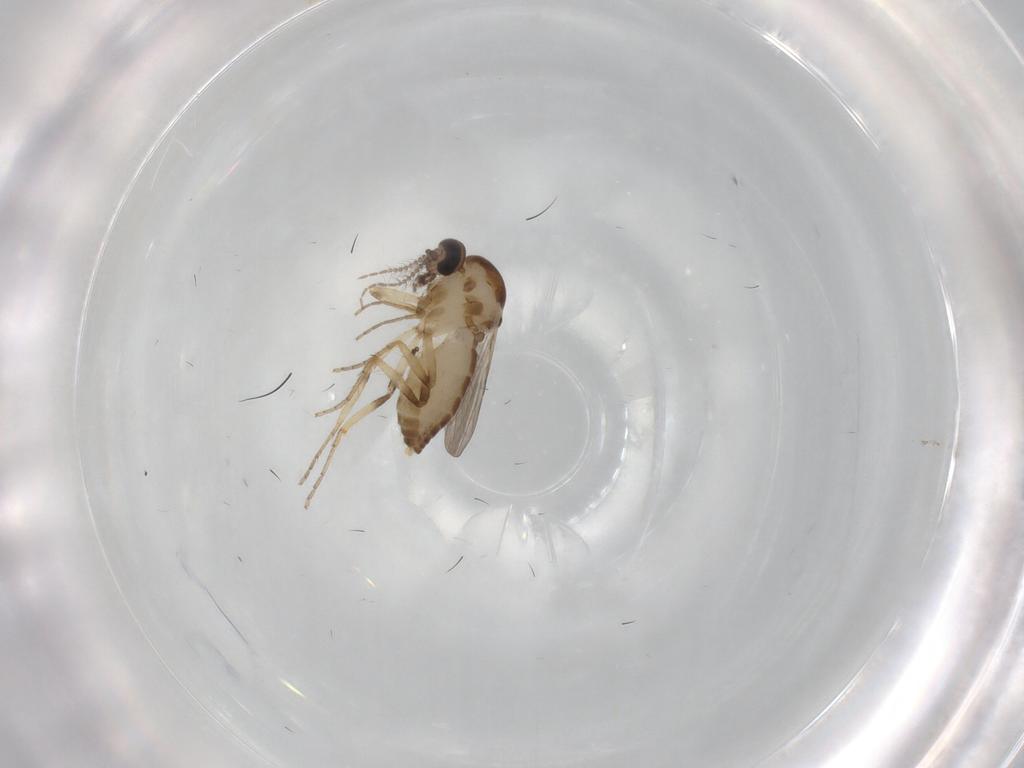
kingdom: Animalia
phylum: Arthropoda
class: Insecta
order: Diptera
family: Ceratopogonidae
